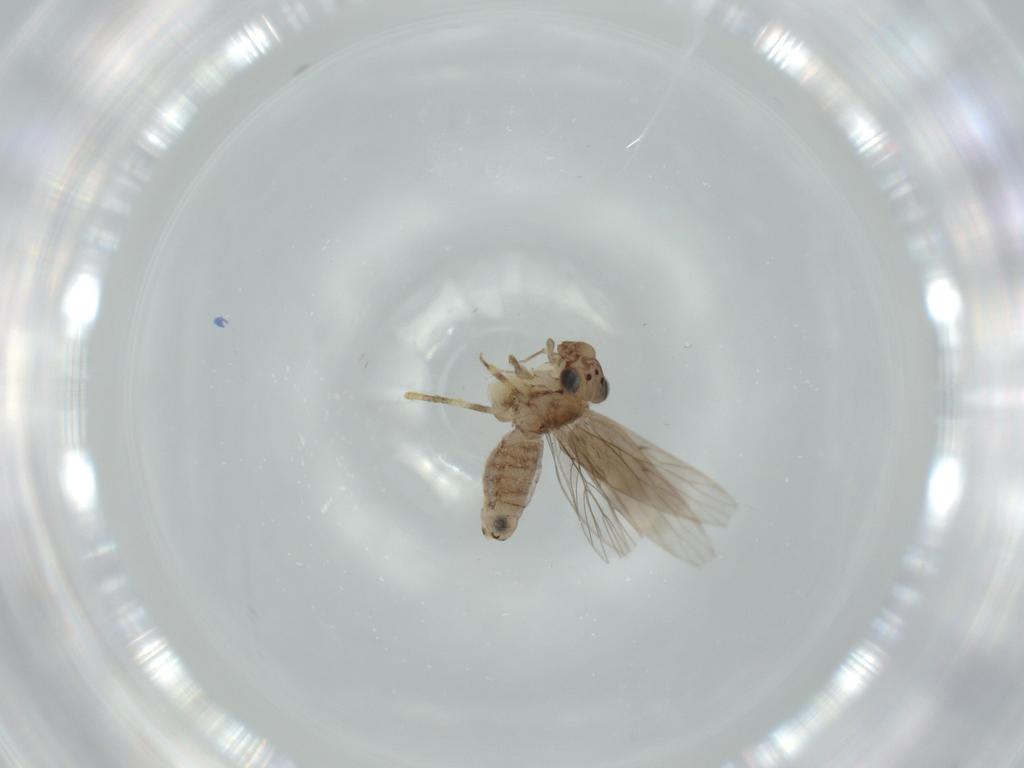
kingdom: Animalia
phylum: Arthropoda
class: Insecta
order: Psocodea
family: Lepidopsocidae
